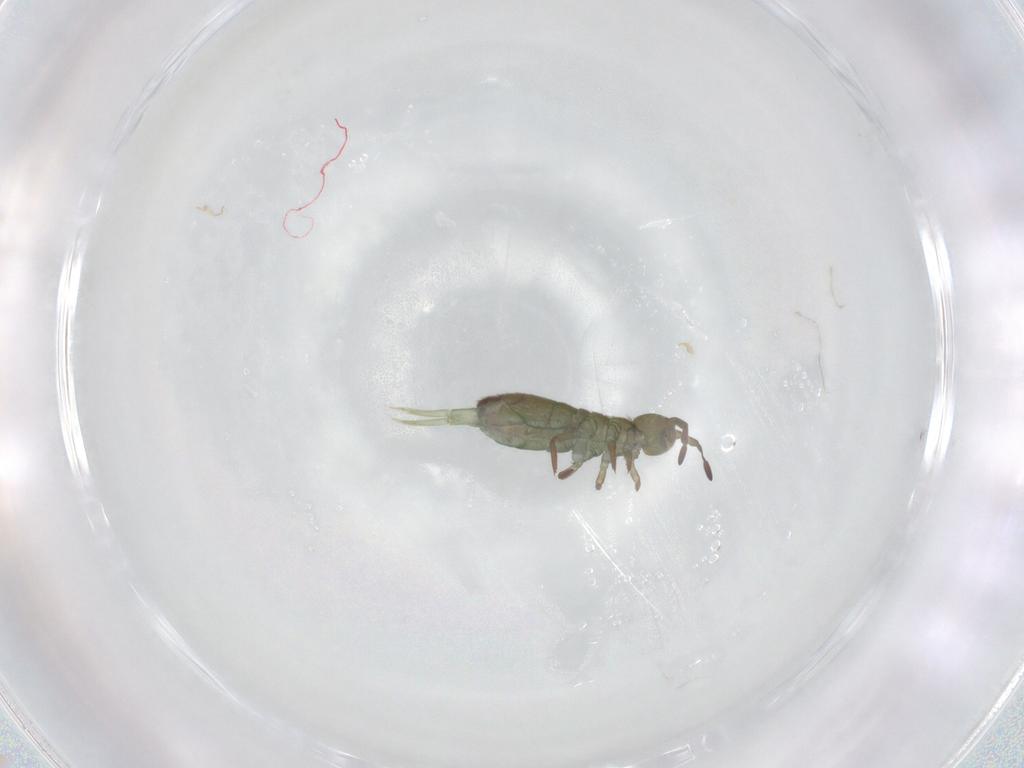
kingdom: Animalia
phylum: Arthropoda
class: Collembola
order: Entomobryomorpha
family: Isotomidae
